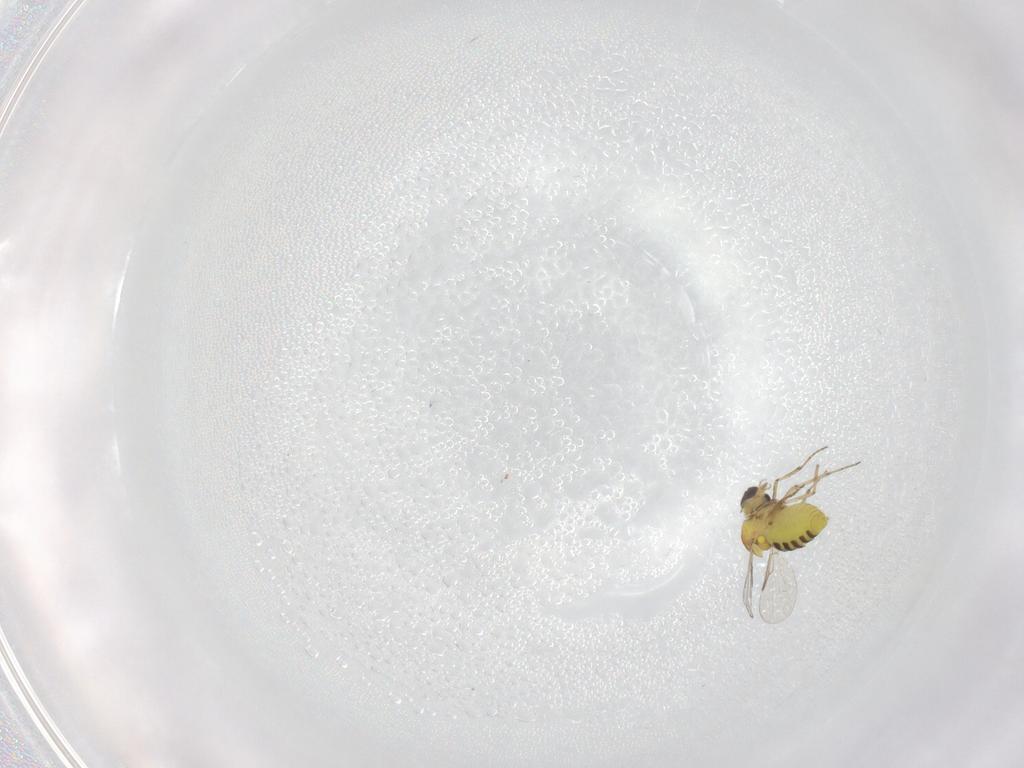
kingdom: Animalia
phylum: Arthropoda
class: Insecta
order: Diptera
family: Ceratopogonidae
